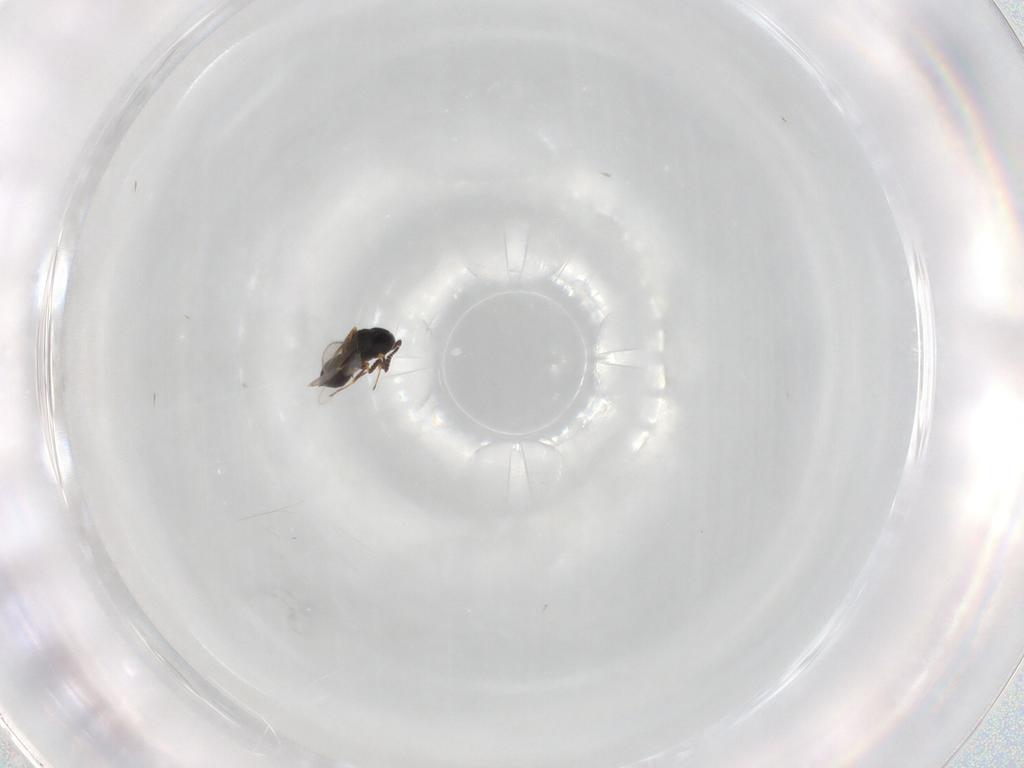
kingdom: Animalia
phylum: Arthropoda
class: Insecta
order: Hymenoptera
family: Scelionidae
